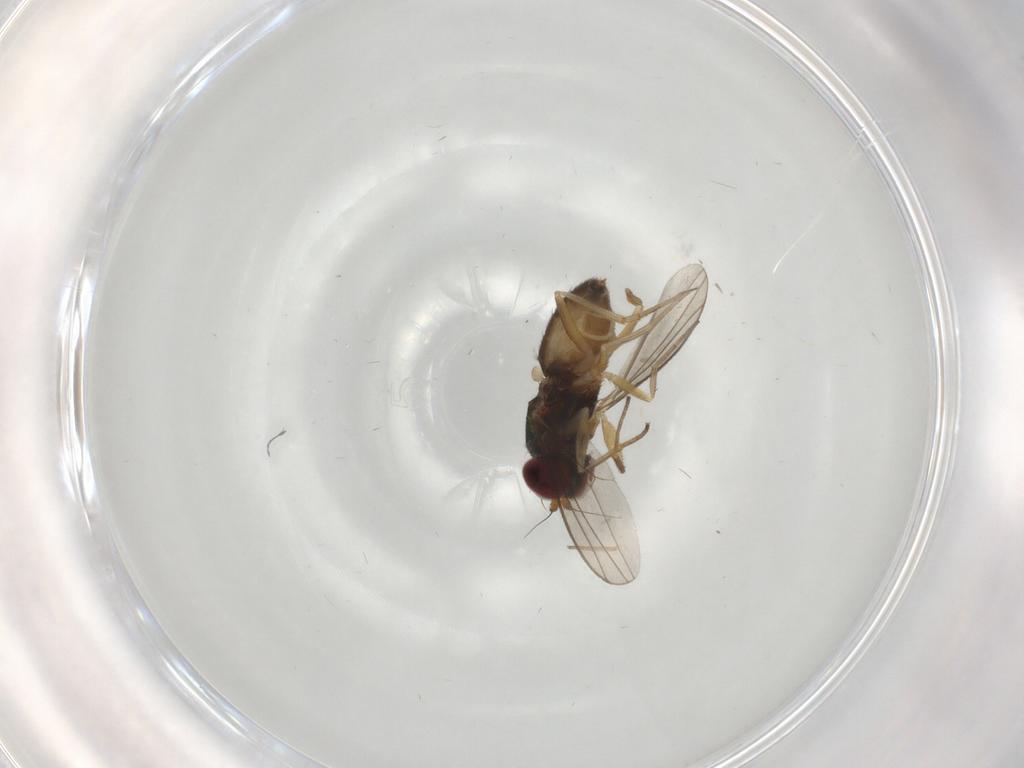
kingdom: Animalia
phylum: Arthropoda
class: Insecta
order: Diptera
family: Dolichopodidae
